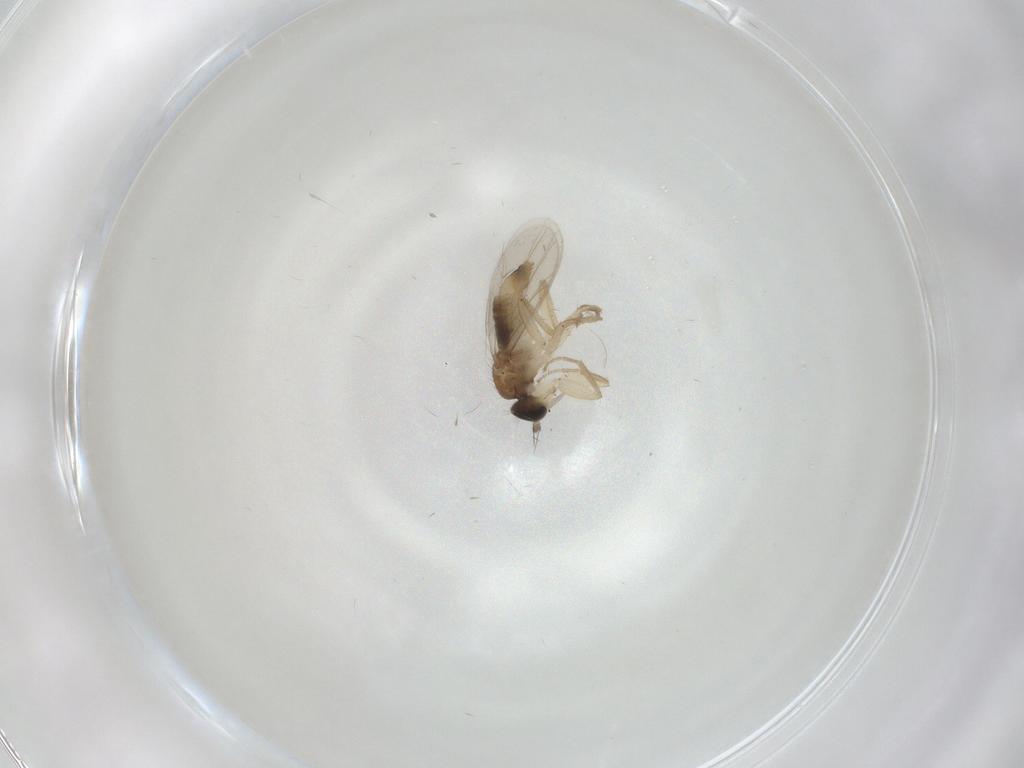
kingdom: Animalia
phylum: Arthropoda
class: Insecta
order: Diptera
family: Hybotidae
